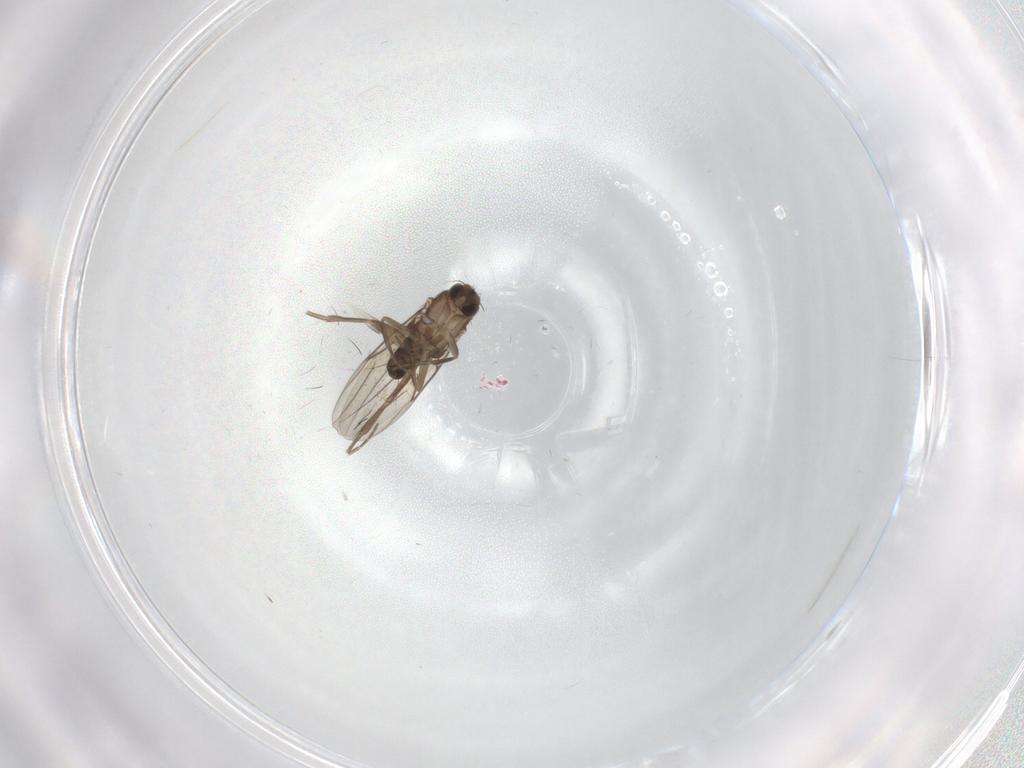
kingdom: Animalia
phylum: Arthropoda
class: Insecta
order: Diptera
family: Phoridae
